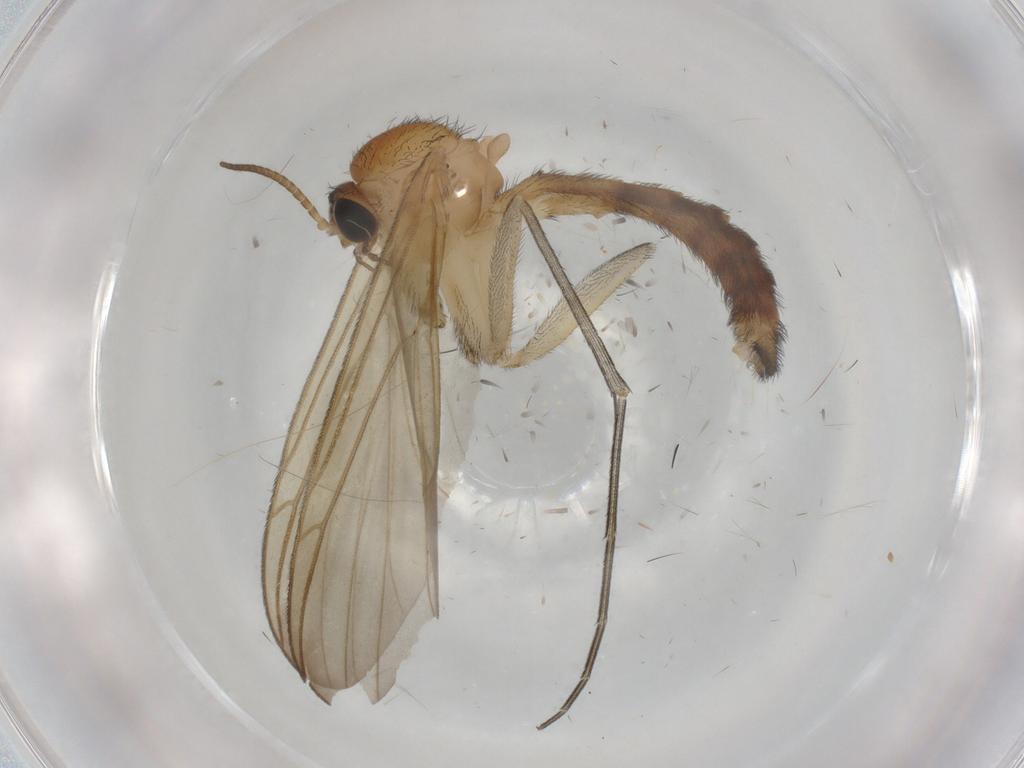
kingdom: Animalia
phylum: Arthropoda
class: Insecta
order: Diptera
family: Keroplatidae
